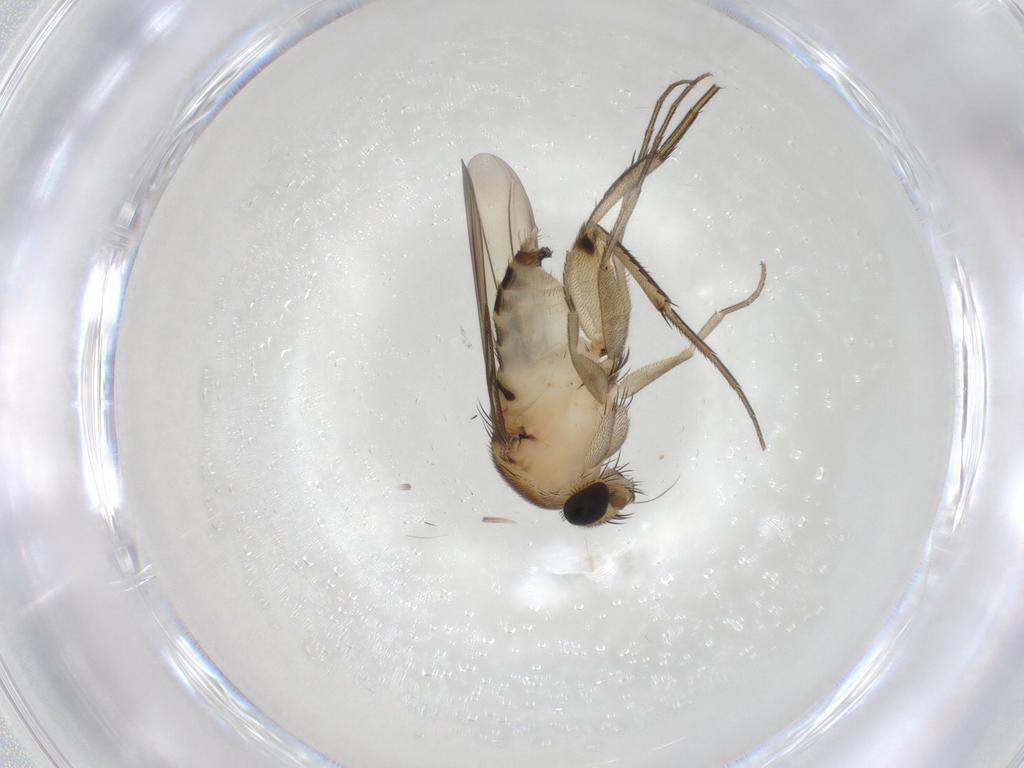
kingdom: Animalia
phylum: Arthropoda
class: Insecta
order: Diptera
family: Phoridae
